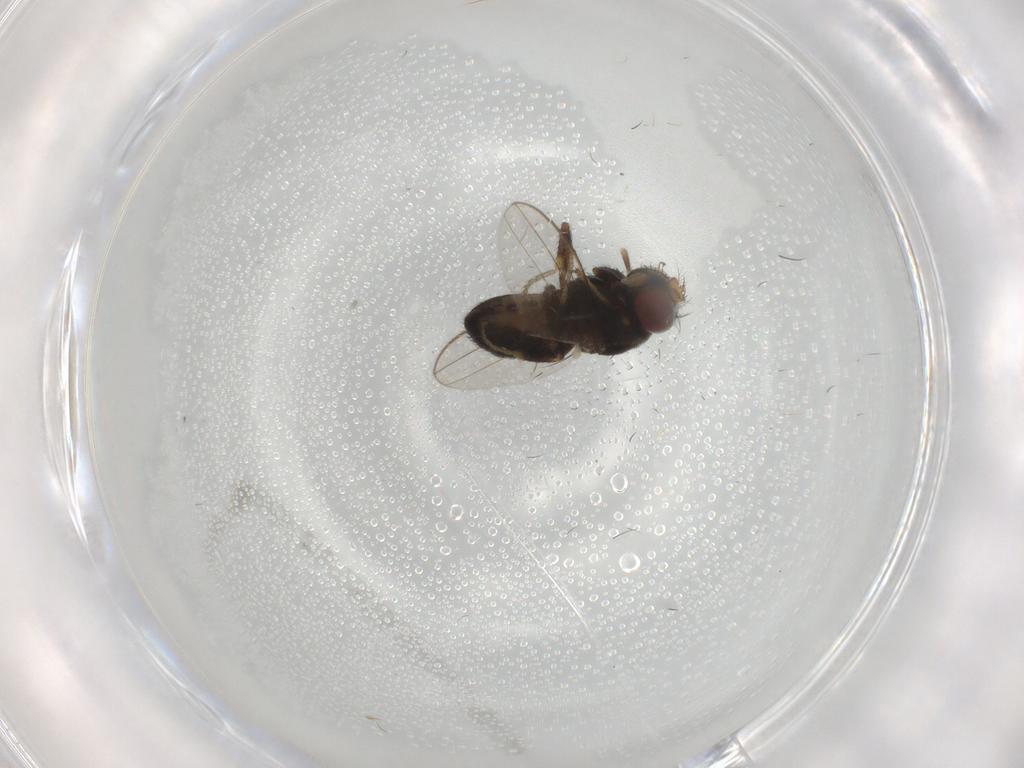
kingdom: Animalia
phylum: Arthropoda
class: Insecta
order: Diptera
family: Ephydridae
